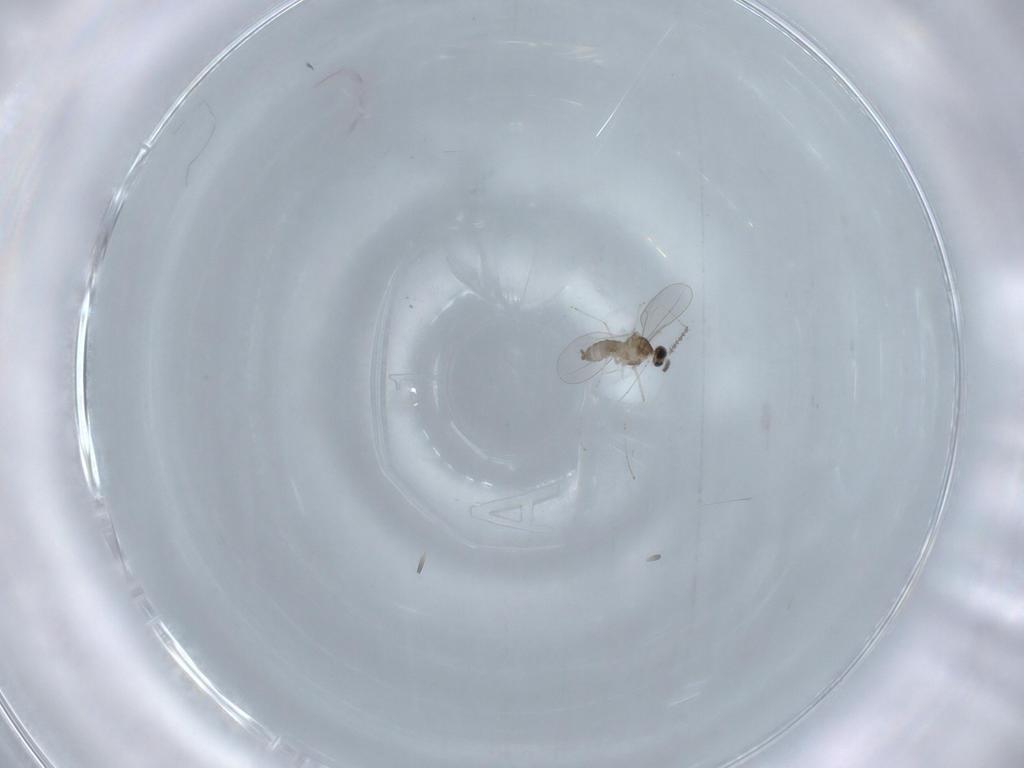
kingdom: Animalia
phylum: Arthropoda
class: Insecta
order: Diptera
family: Cecidomyiidae
